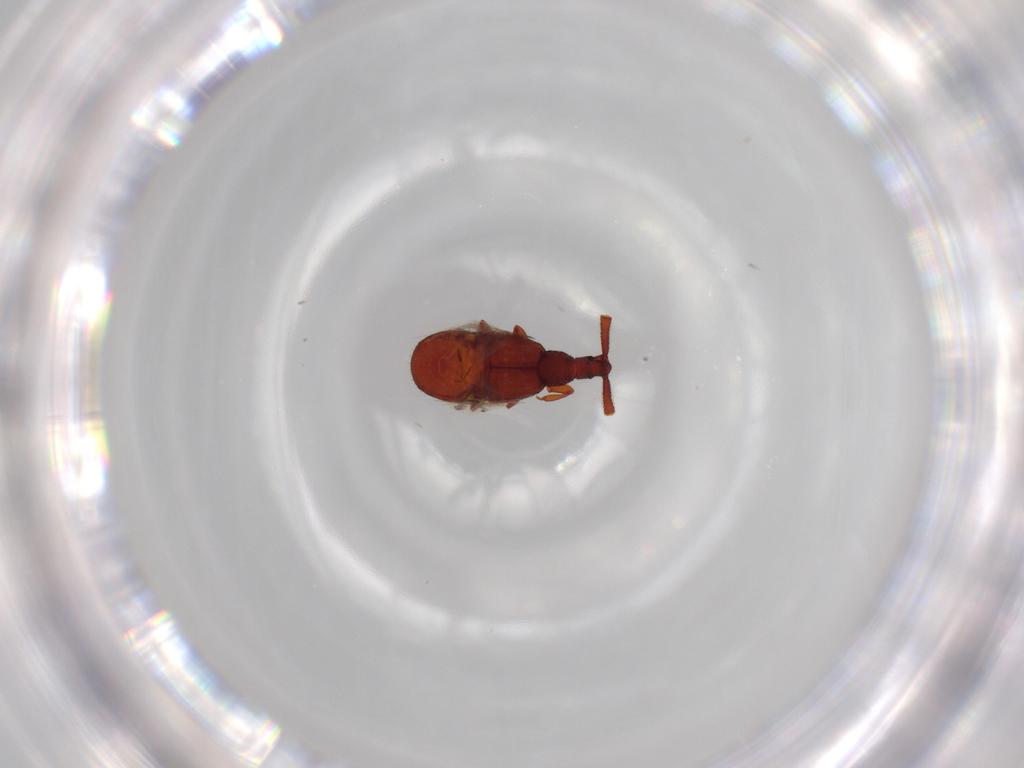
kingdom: Animalia
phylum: Arthropoda
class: Insecta
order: Coleoptera
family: Staphylinidae
